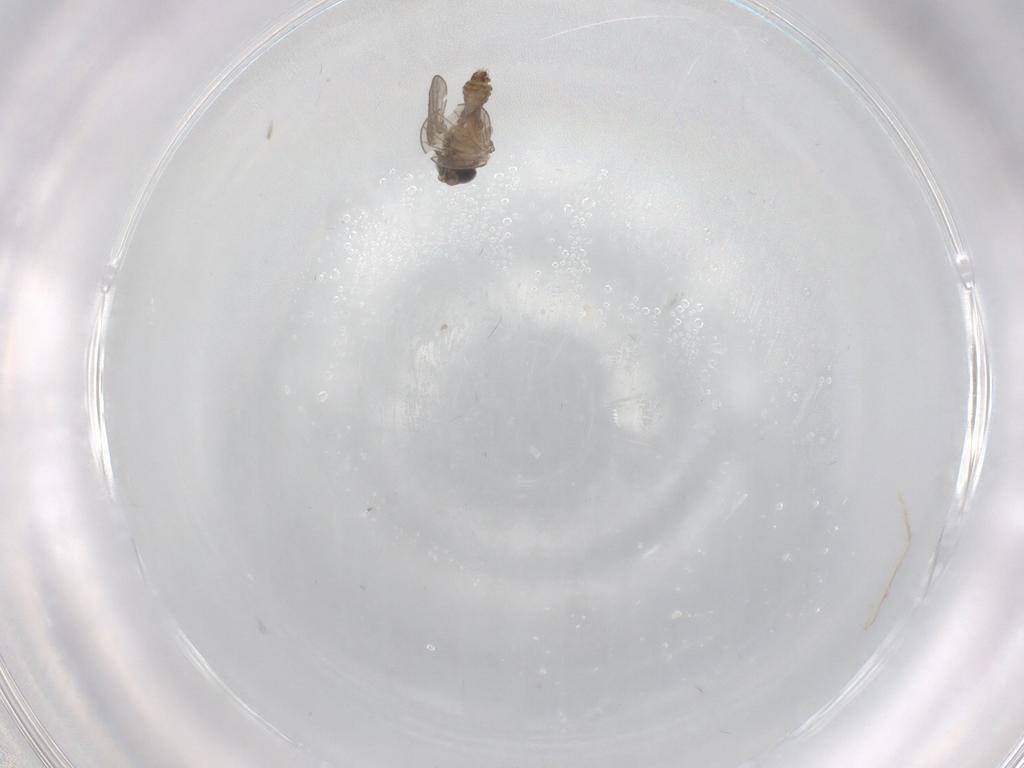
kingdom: Animalia
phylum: Arthropoda
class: Insecta
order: Diptera
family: Cecidomyiidae
